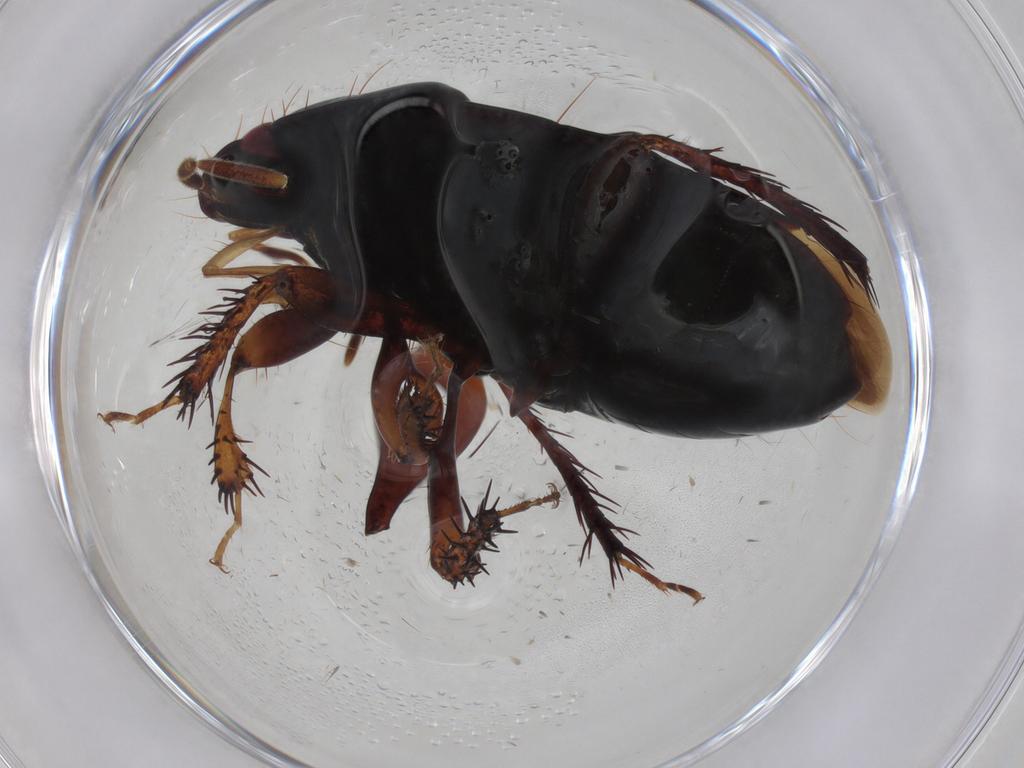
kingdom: Animalia
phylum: Arthropoda
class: Insecta
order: Hemiptera
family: Cydnidae
